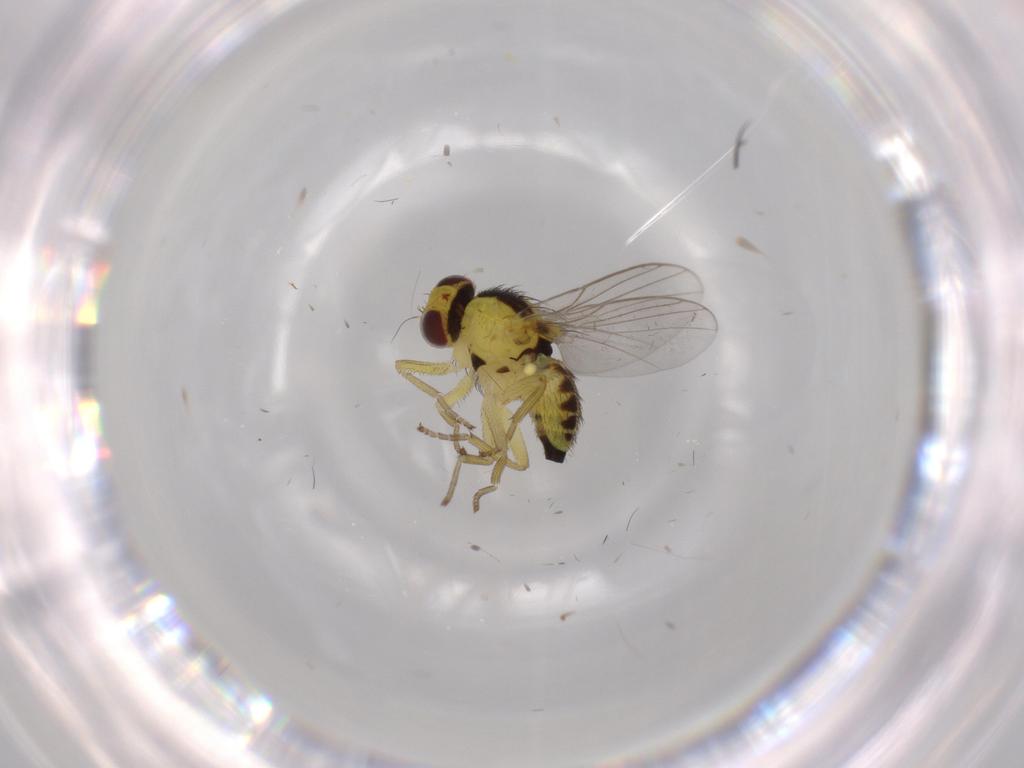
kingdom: Animalia
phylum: Arthropoda
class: Insecta
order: Diptera
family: Agromyzidae
